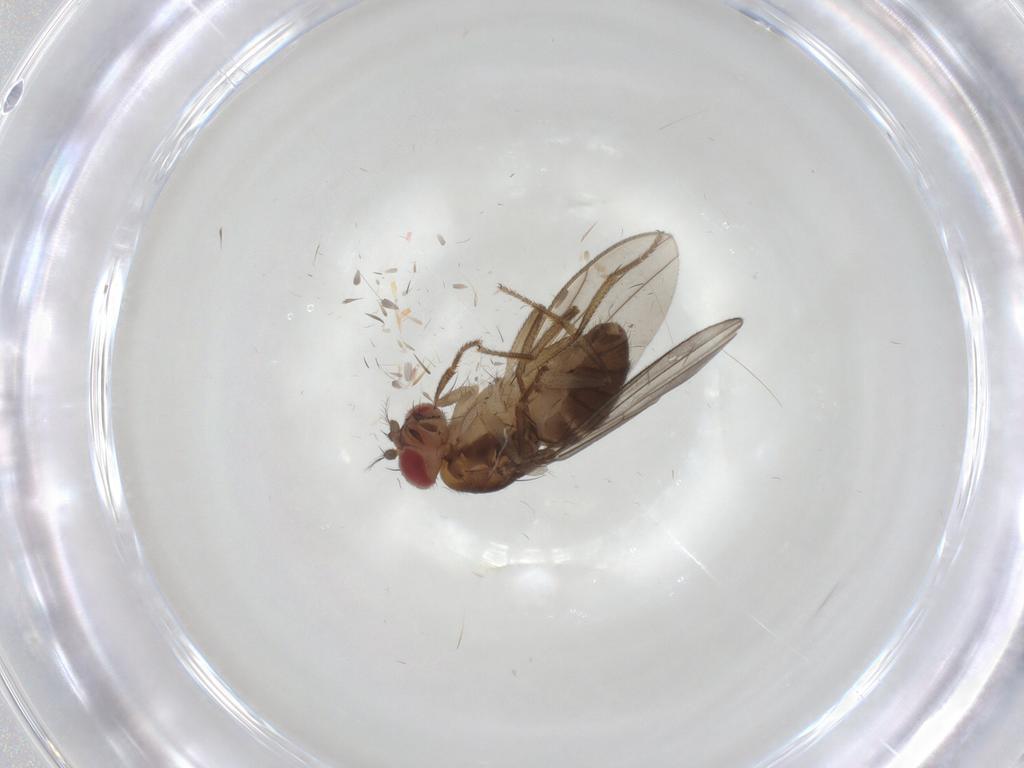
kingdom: Animalia
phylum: Arthropoda
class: Insecta
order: Diptera
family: Drosophilidae
